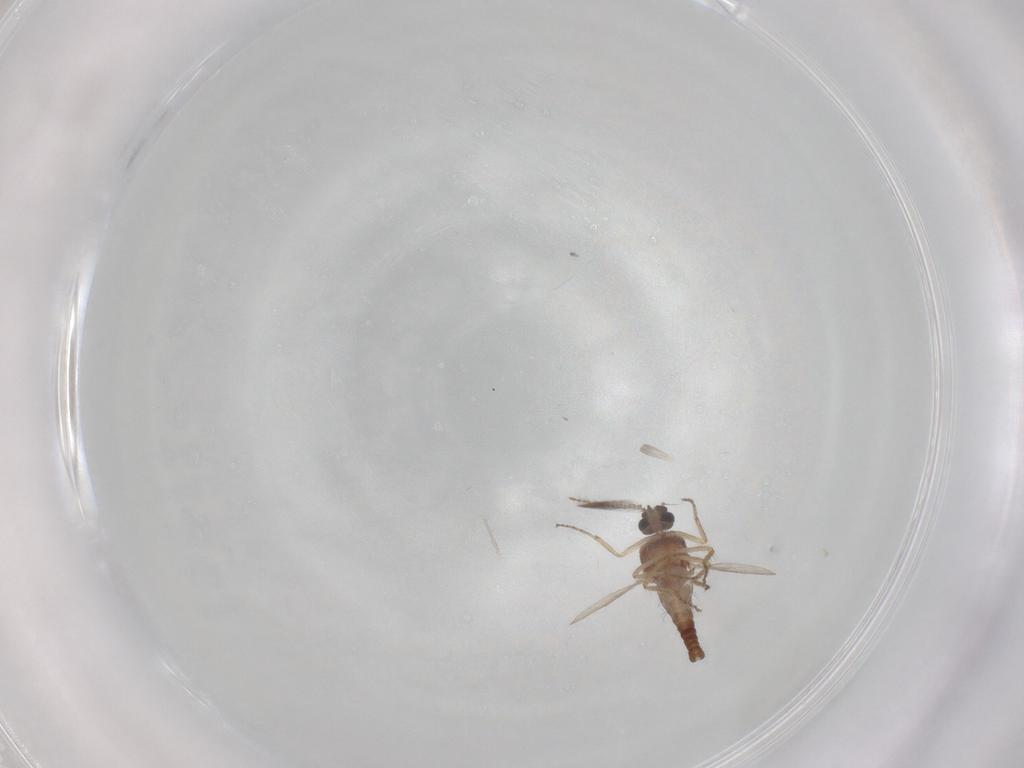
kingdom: Animalia
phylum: Arthropoda
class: Insecta
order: Diptera
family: Ceratopogonidae
